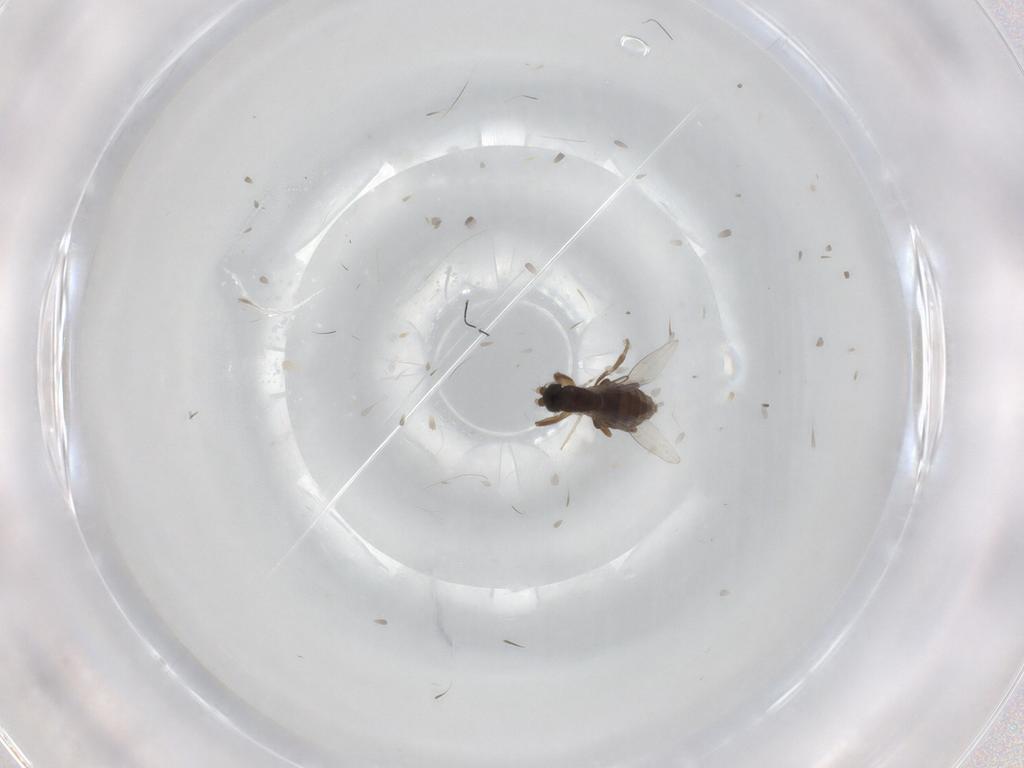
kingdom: Animalia
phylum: Arthropoda
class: Insecta
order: Diptera
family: Phoridae
